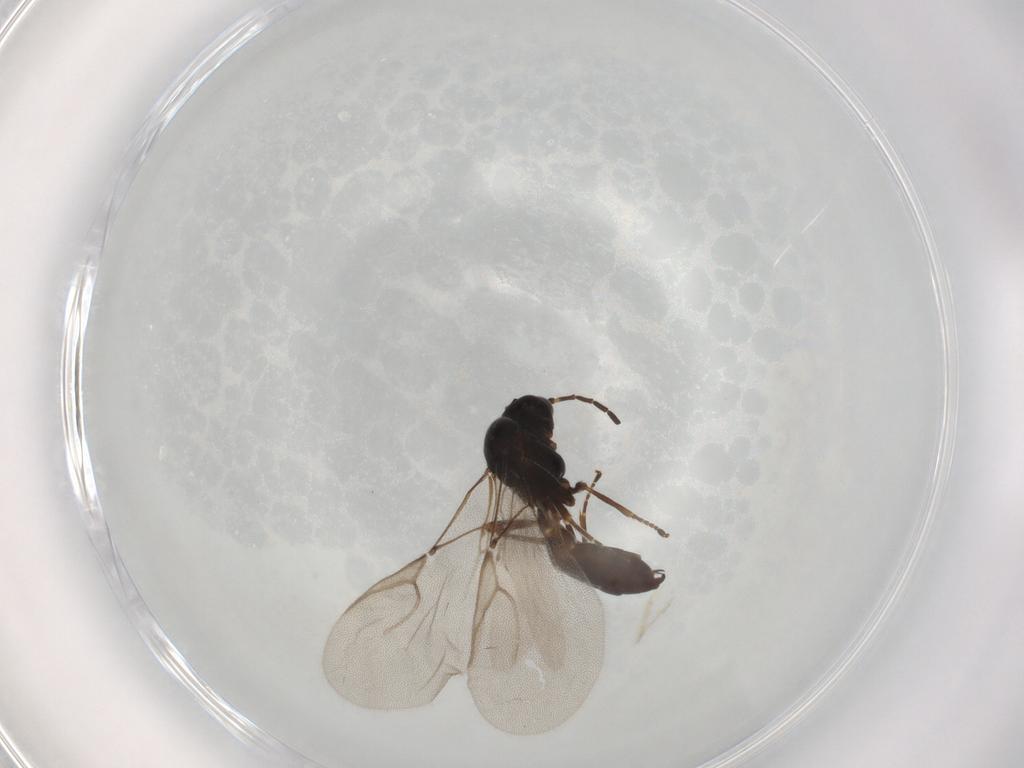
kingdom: Animalia
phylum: Arthropoda
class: Insecta
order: Hymenoptera
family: Braconidae
